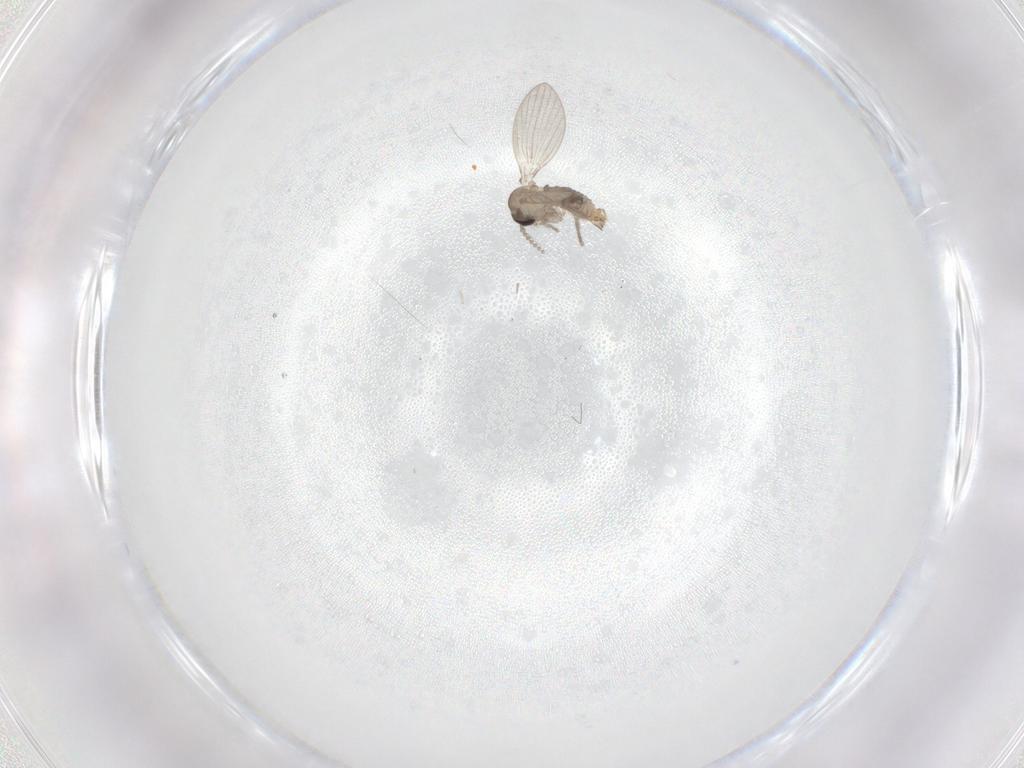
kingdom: Animalia
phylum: Arthropoda
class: Insecta
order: Diptera
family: Psychodidae
